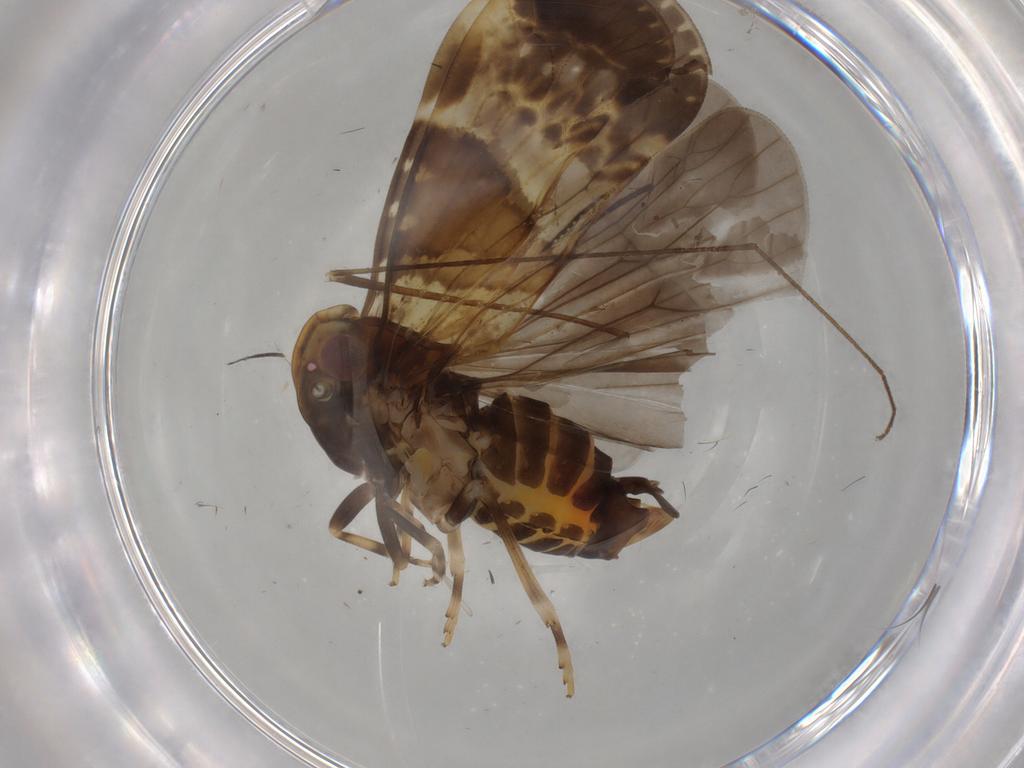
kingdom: Animalia
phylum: Arthropoda
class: Insecta
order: Hemiptera
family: Cixiidae
